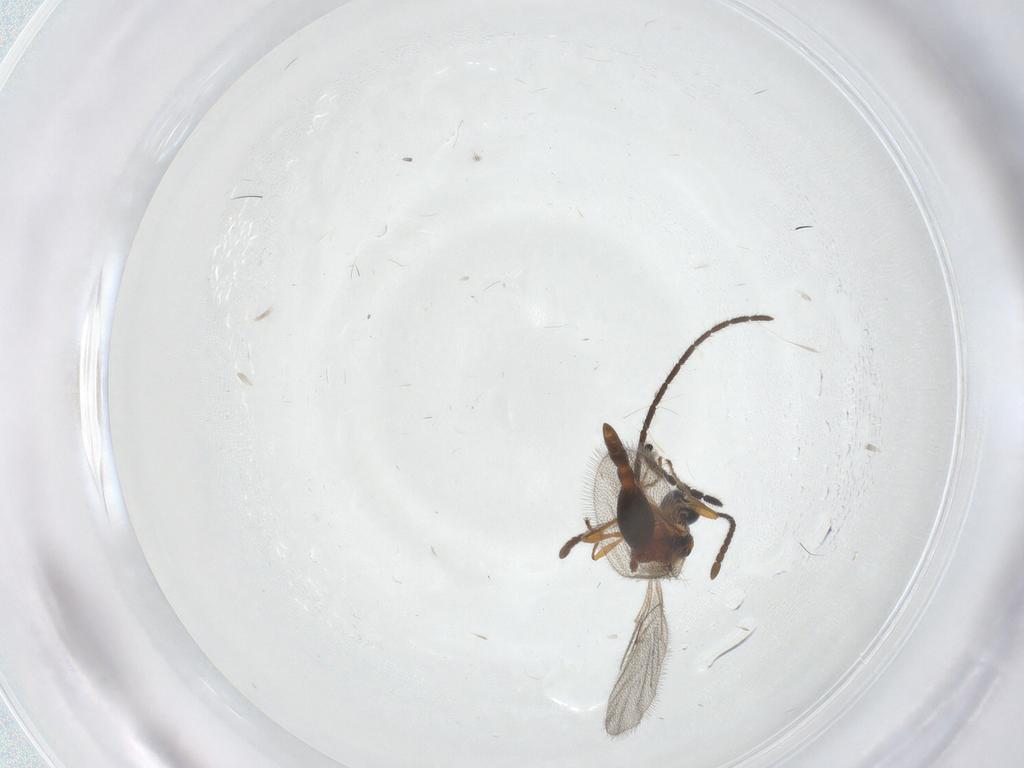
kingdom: Animalia
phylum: Arthropoda
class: Insecta
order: Hymenoptera
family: Diapriidae
